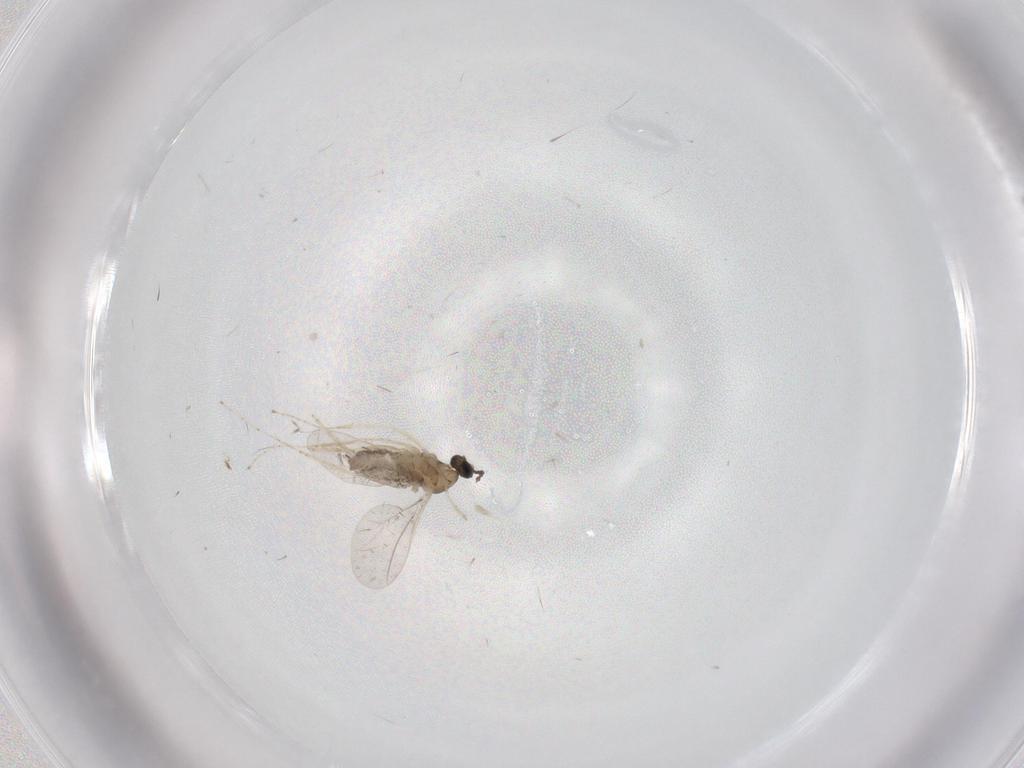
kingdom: Animalia
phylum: Arthropoda
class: Insecta
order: Diptera
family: Cecidomyiidae
